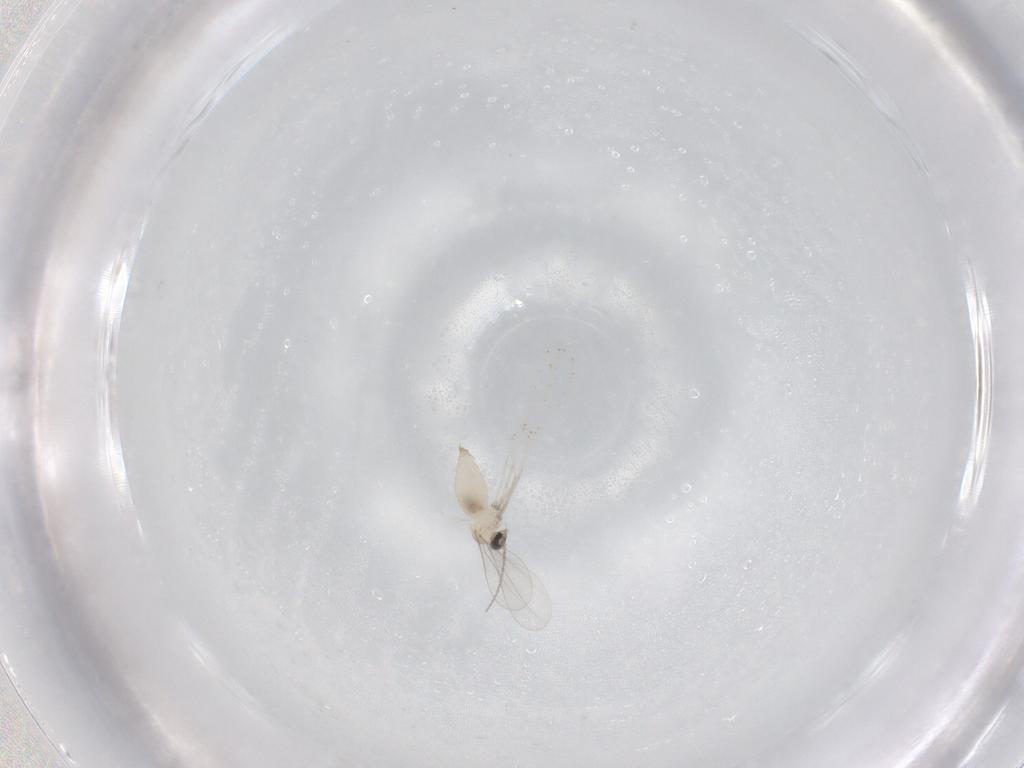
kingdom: Animalia
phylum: Arthropoda
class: Insecta
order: Diptera
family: Cecidomyiidae
